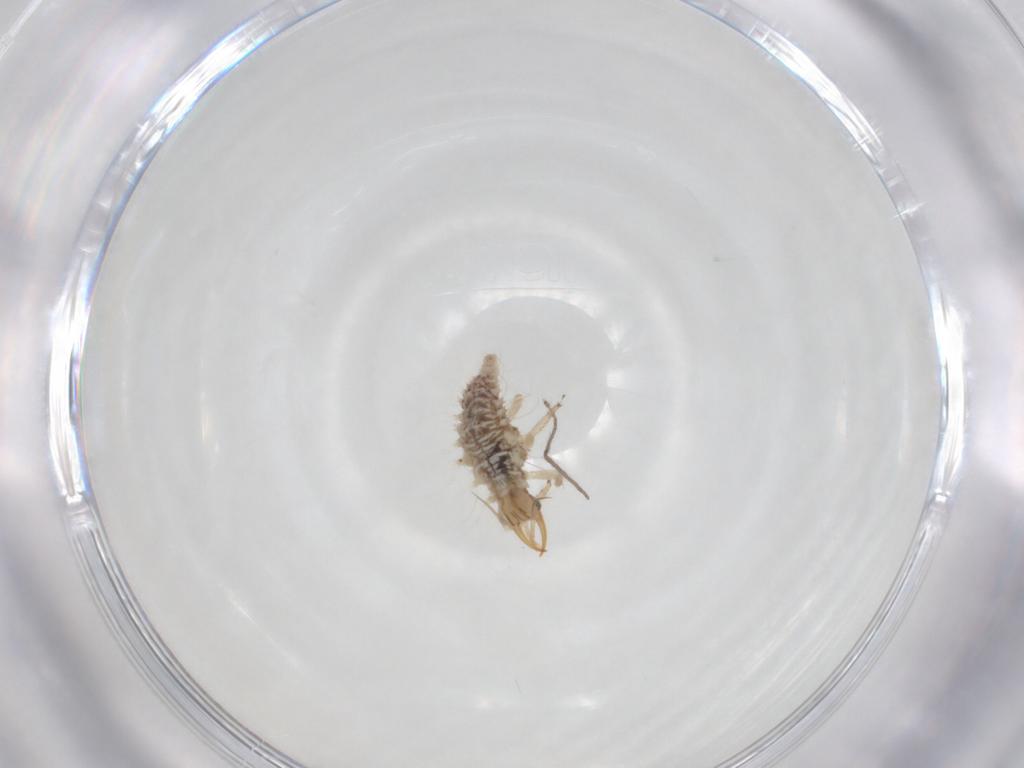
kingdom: Animalia
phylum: Arthropoda
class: Insecta
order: Hymenoptera
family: Eulophidae
